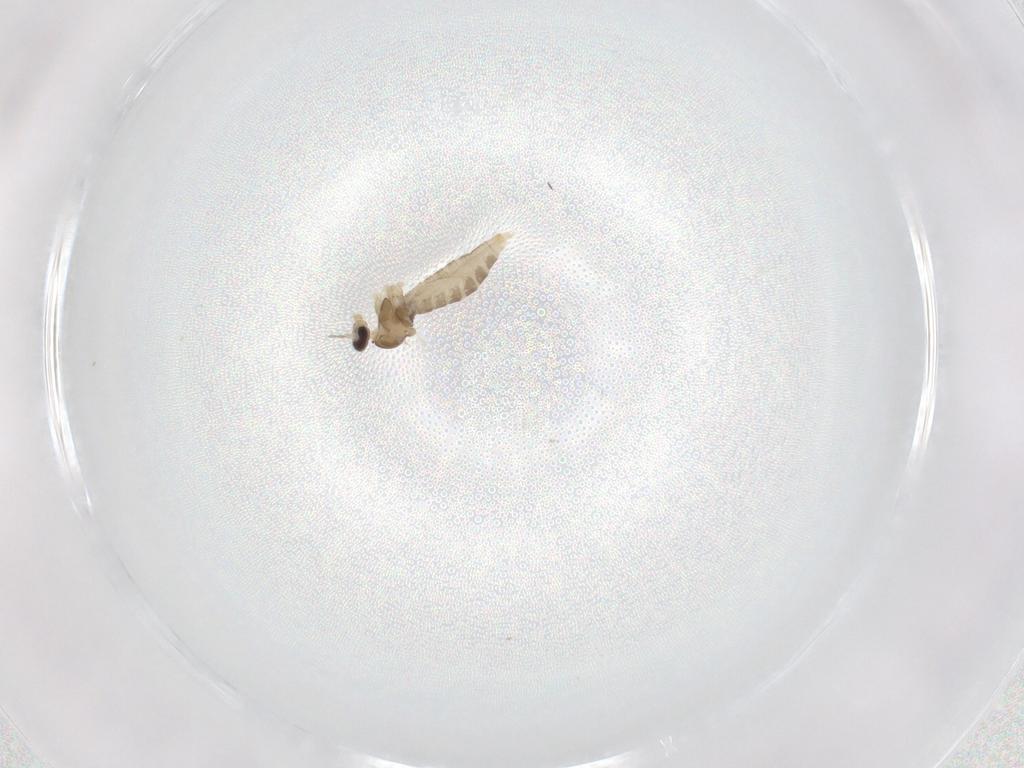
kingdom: Animalia
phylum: Arthropoda
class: Insecta
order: Diptera
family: Cecidomyiidae
